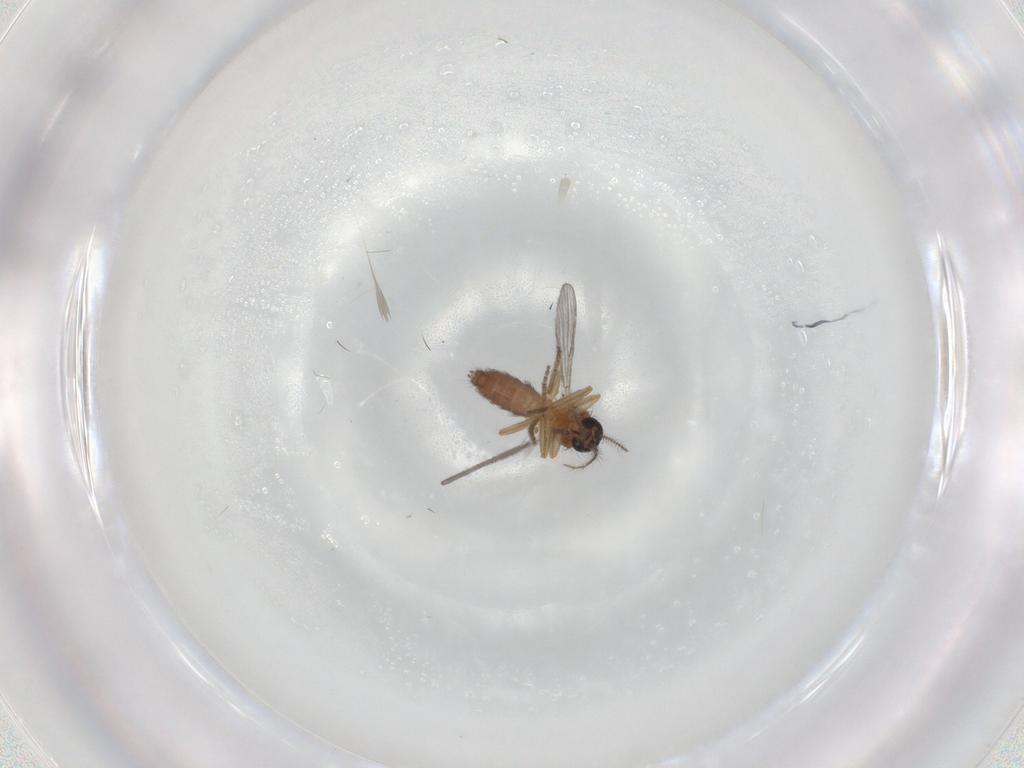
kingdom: Animalia
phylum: Arthropoda
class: Insecta
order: Diptera
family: Ceratopogonidae
